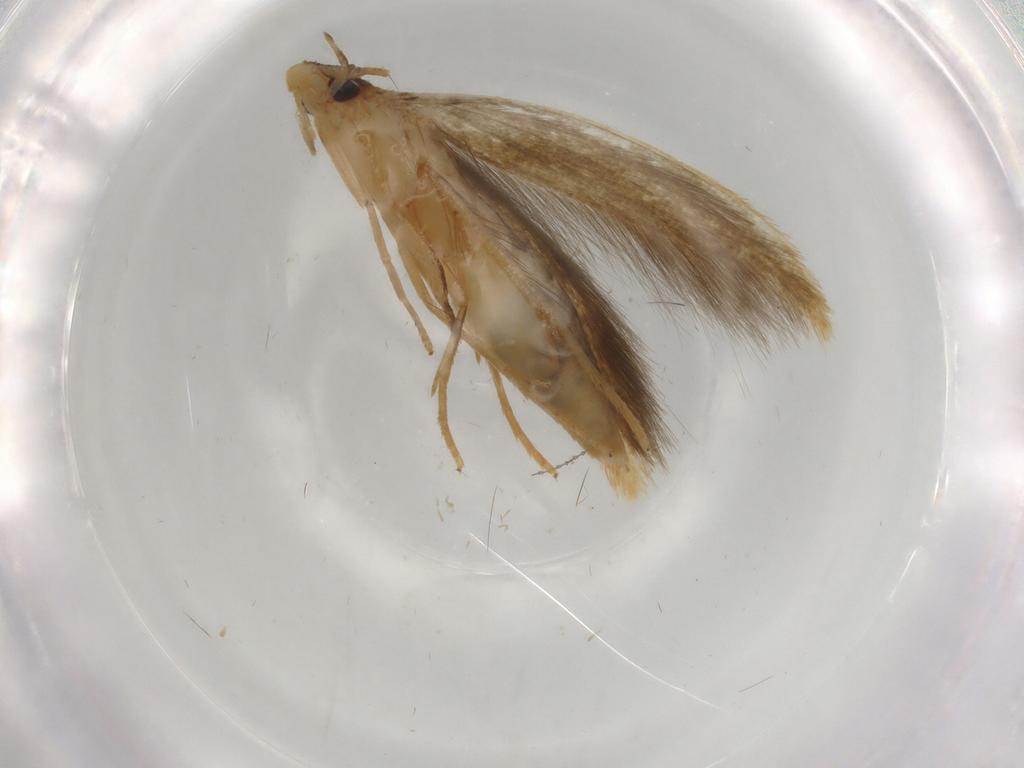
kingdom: Animalia
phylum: Arthropoda
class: Insecta
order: Lepidoptera
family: Tineidae
